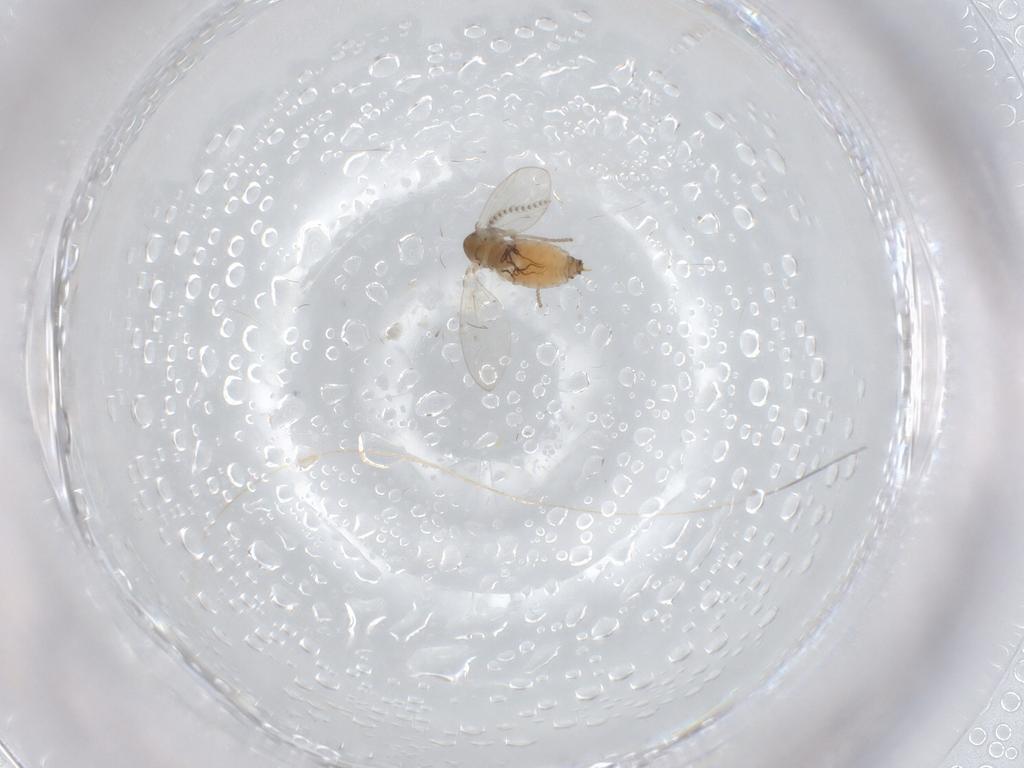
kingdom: Animalia
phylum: Arthropoda
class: Insecta
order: Diptera
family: Psychodidae
